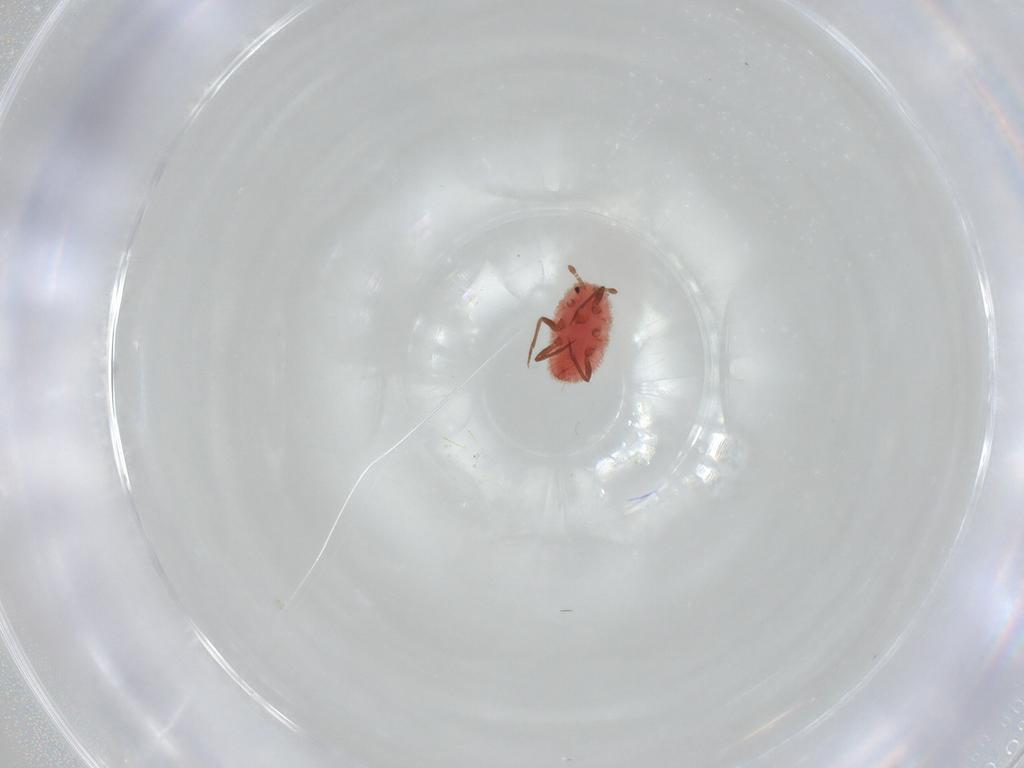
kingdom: Animalia
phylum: Arthropoda
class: Insecta
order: Diptera
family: Ceratopogonidae
